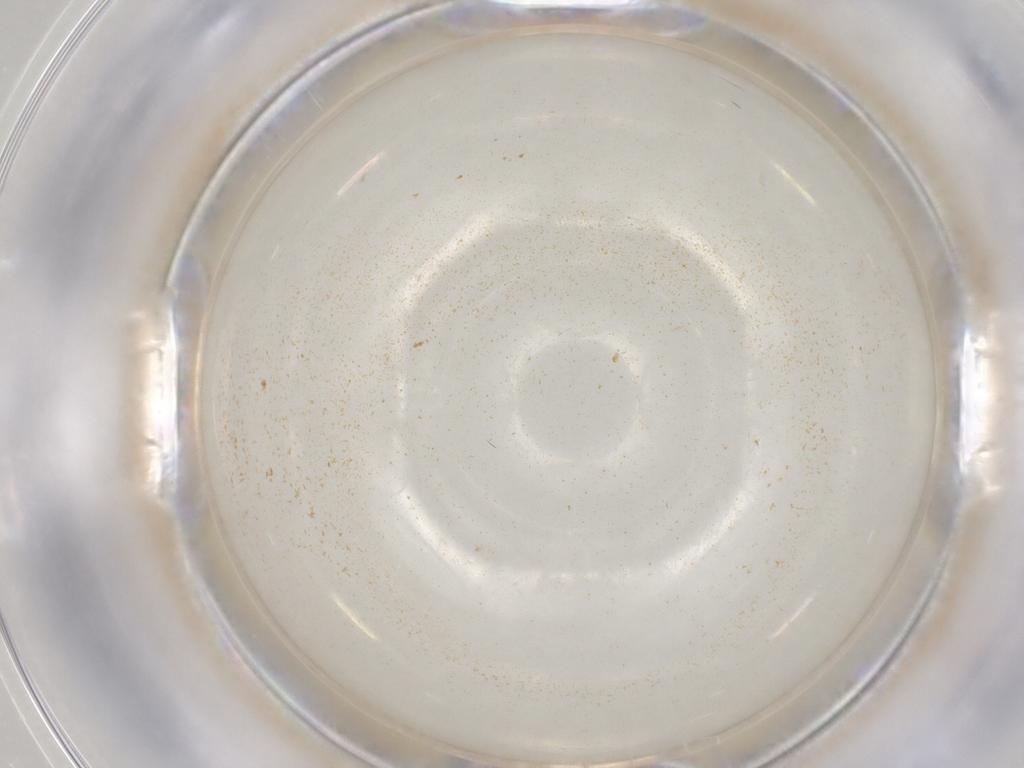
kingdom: Animalia
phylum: Arthropoda
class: Collembola
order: Symphypleona
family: Sminthuridae
